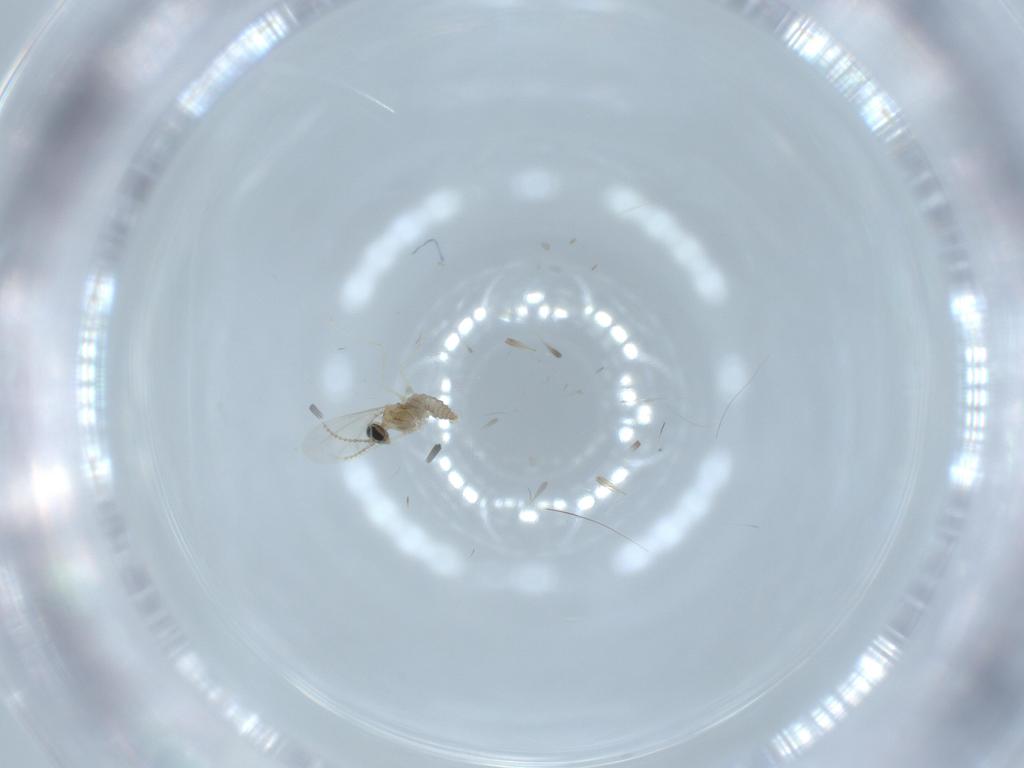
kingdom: Animalia
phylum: Arthropoda
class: Insecta
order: Diptera
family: Cecidomyiidae
